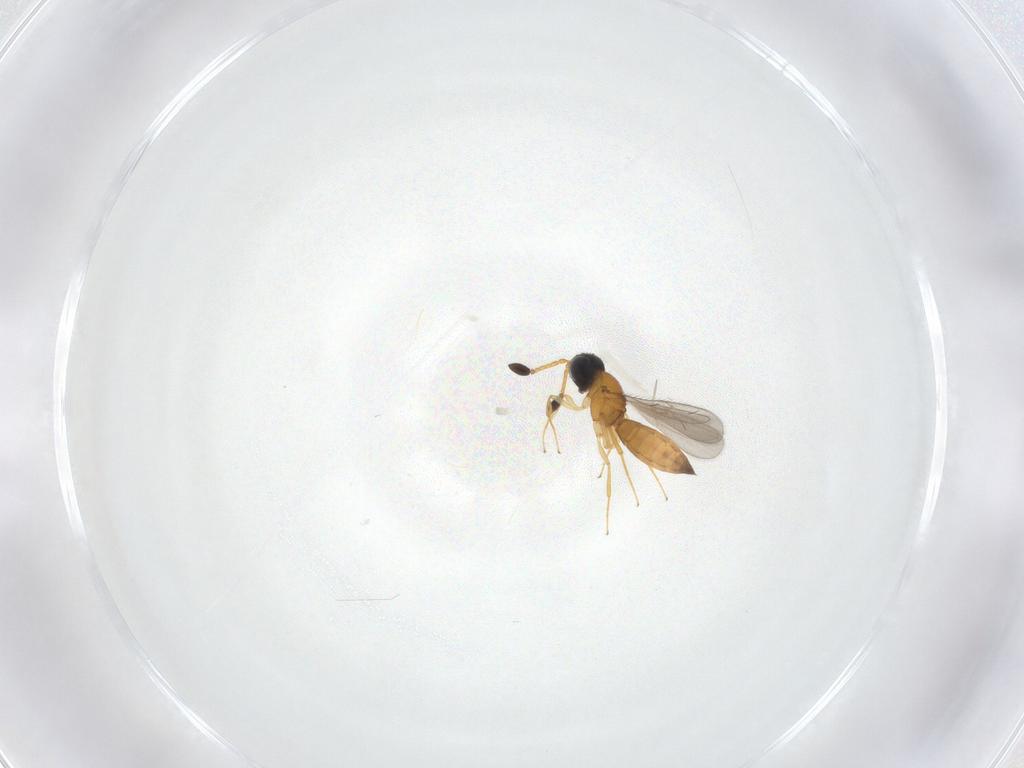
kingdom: Animalia
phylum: Arthropoda
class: Insecta
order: Hymenoptera
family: Scelionidae
